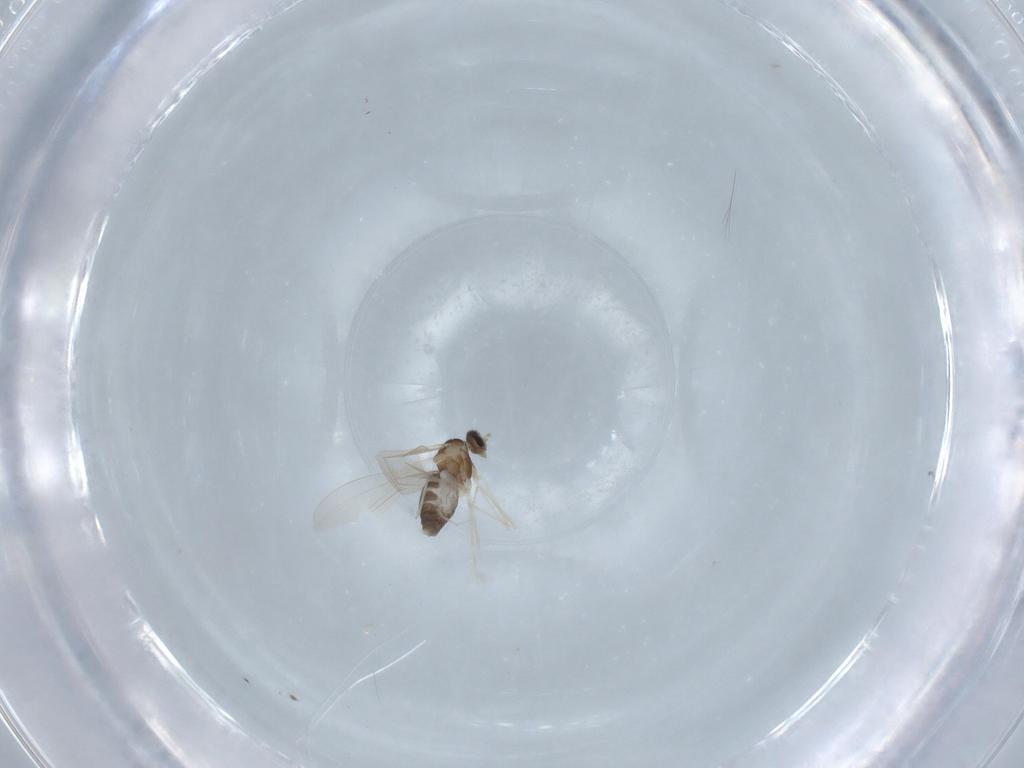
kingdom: Animalia
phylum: Arthropoda
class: Insecta
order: Diptera
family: Cecidomyiidae
